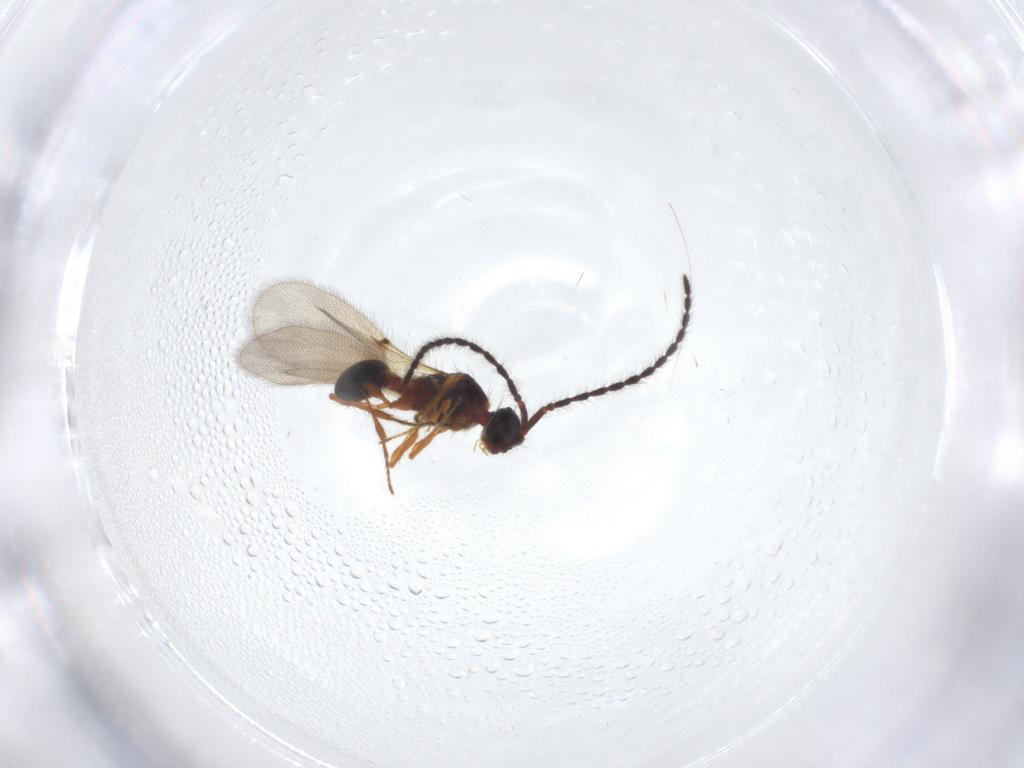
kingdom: Animalia
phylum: Arthropoda
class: Insecta
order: Hymenoptera
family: Diapriidae
